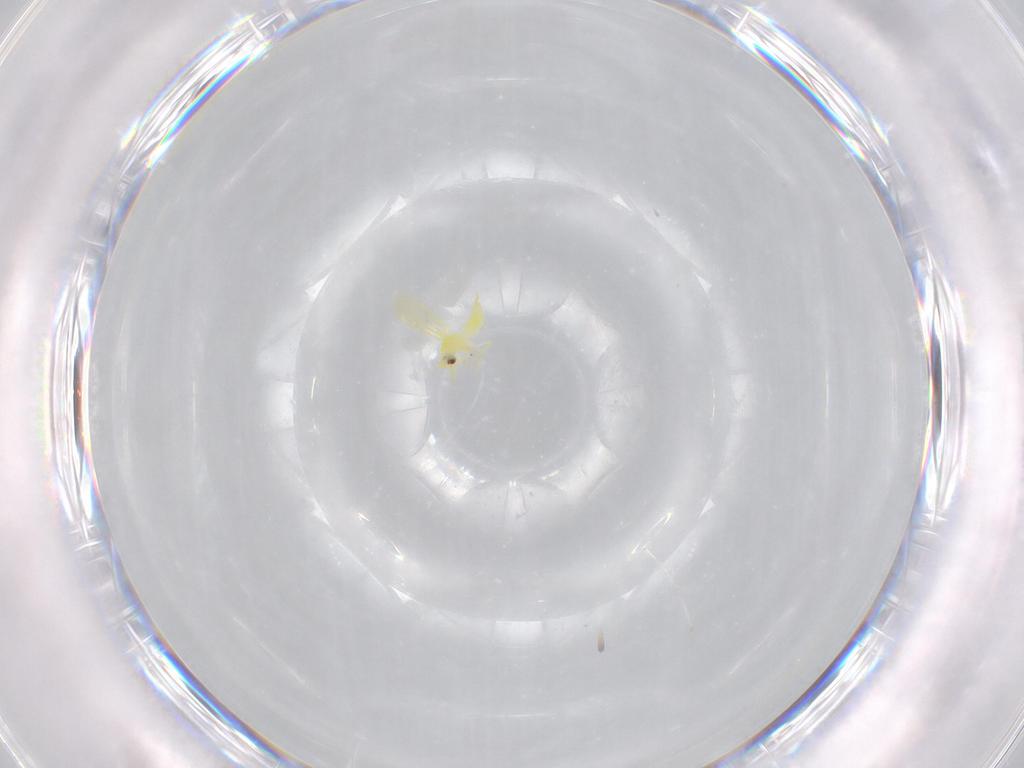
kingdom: Animalia
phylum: Arthropoda
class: Insecta
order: Hemiptera
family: Aleyrodidae
